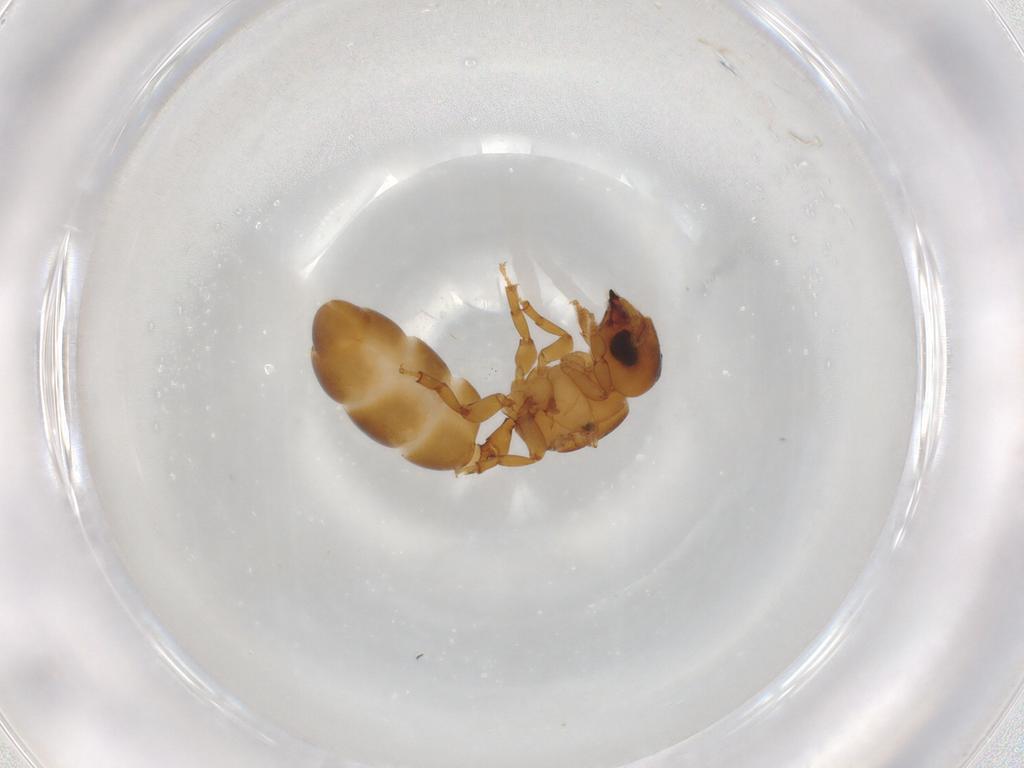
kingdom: Animalia
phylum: Arthropoda
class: Insecta
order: Hymenoptera
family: Formicidae
